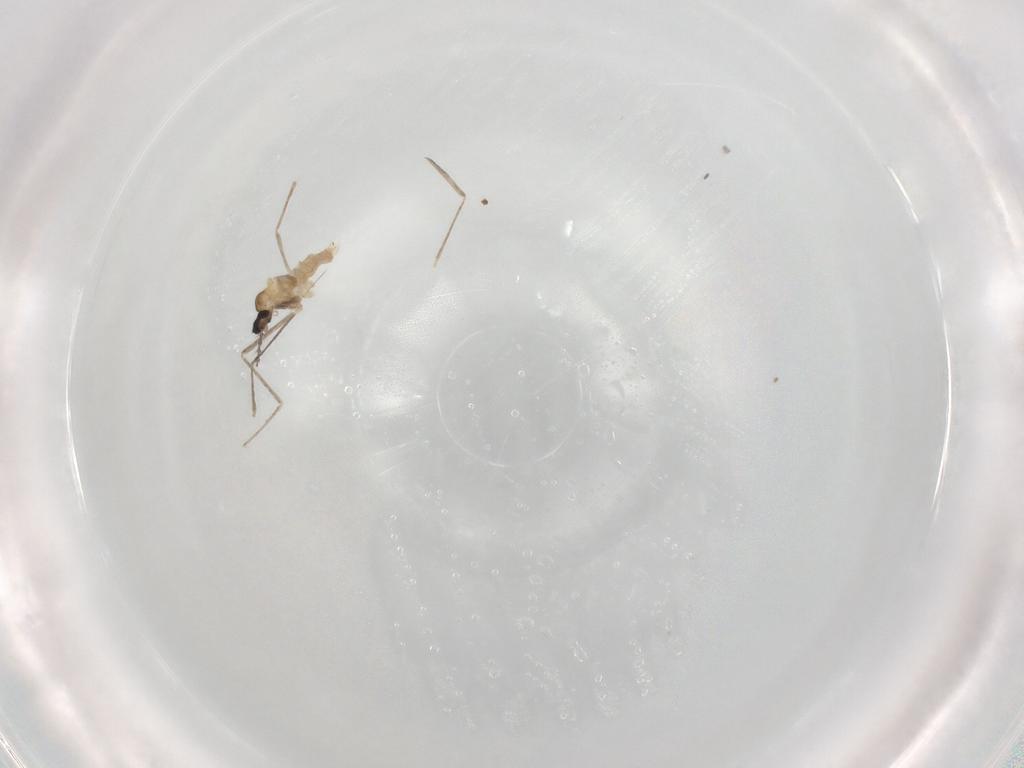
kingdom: Animalia
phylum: Arthropoda
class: Insecta
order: Diptera
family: Cecidomyiidae
